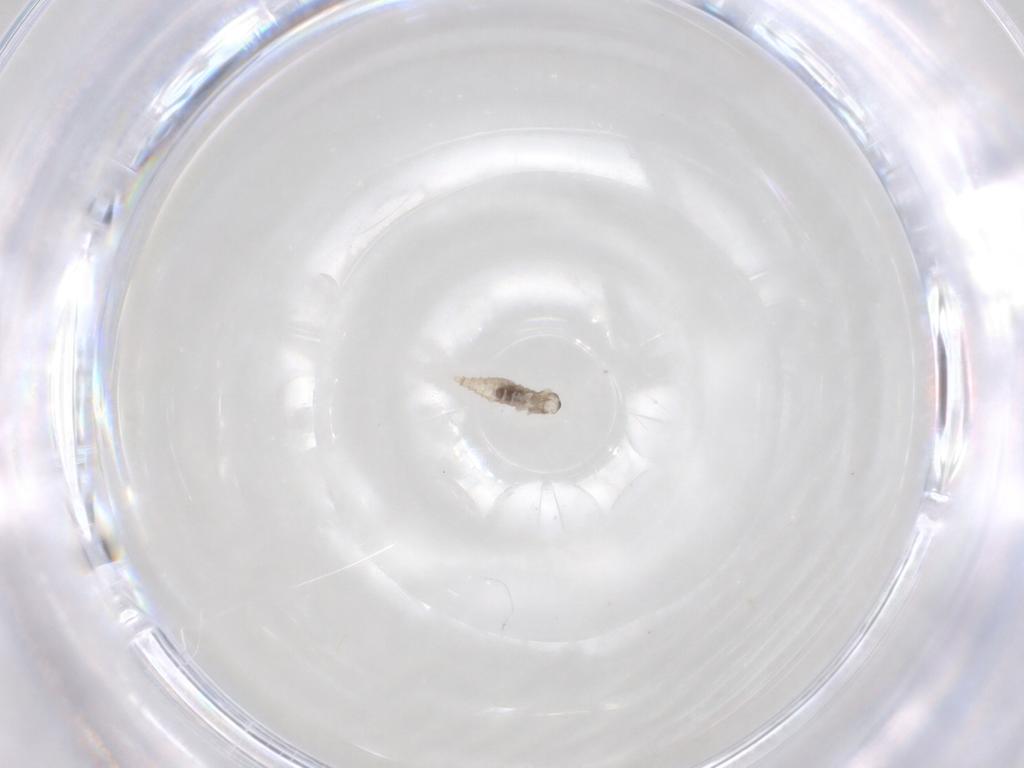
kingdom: Animalia
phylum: Arthropoda
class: Insecta
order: Diptera
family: Cecidomyiidae
